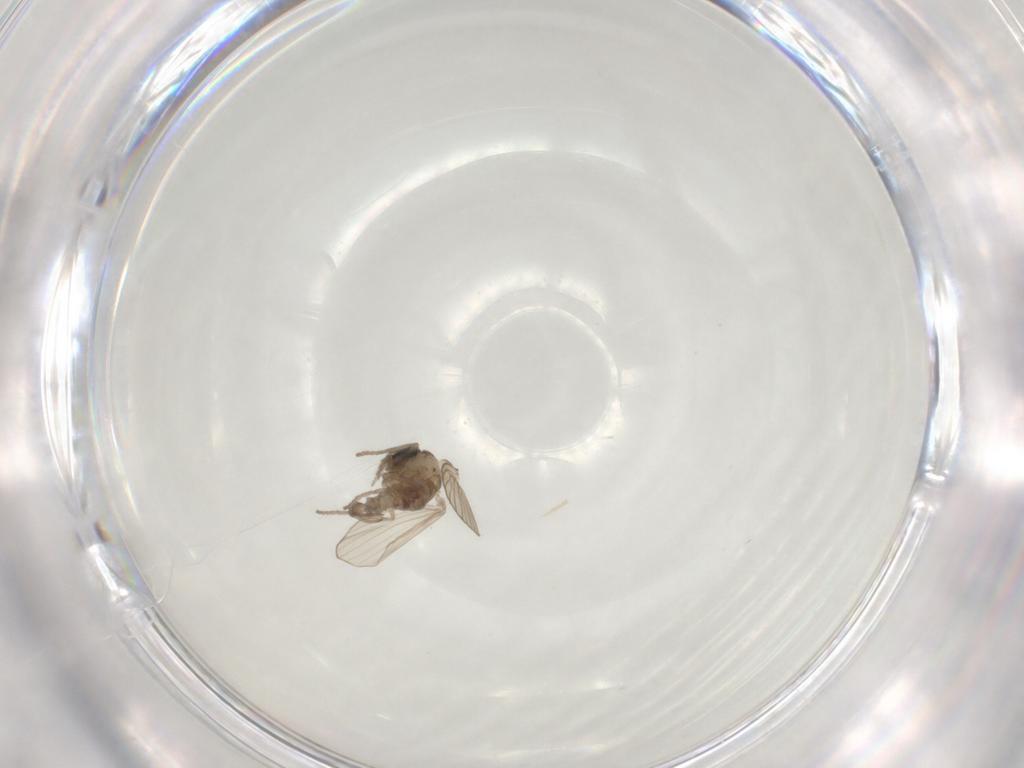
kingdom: Animalia
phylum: Arthropoda
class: Insecta
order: Diptera
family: Psychodidae
